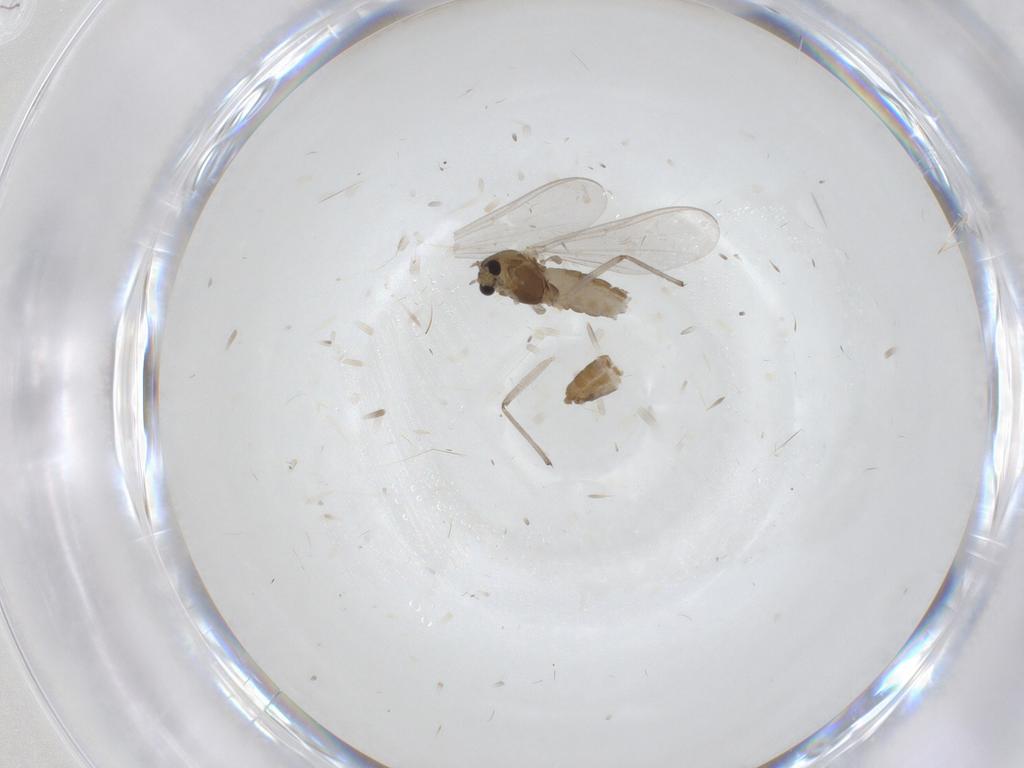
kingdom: Animalia
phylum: Arthropoda
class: Insecta
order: Diptera
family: Chironomidae
